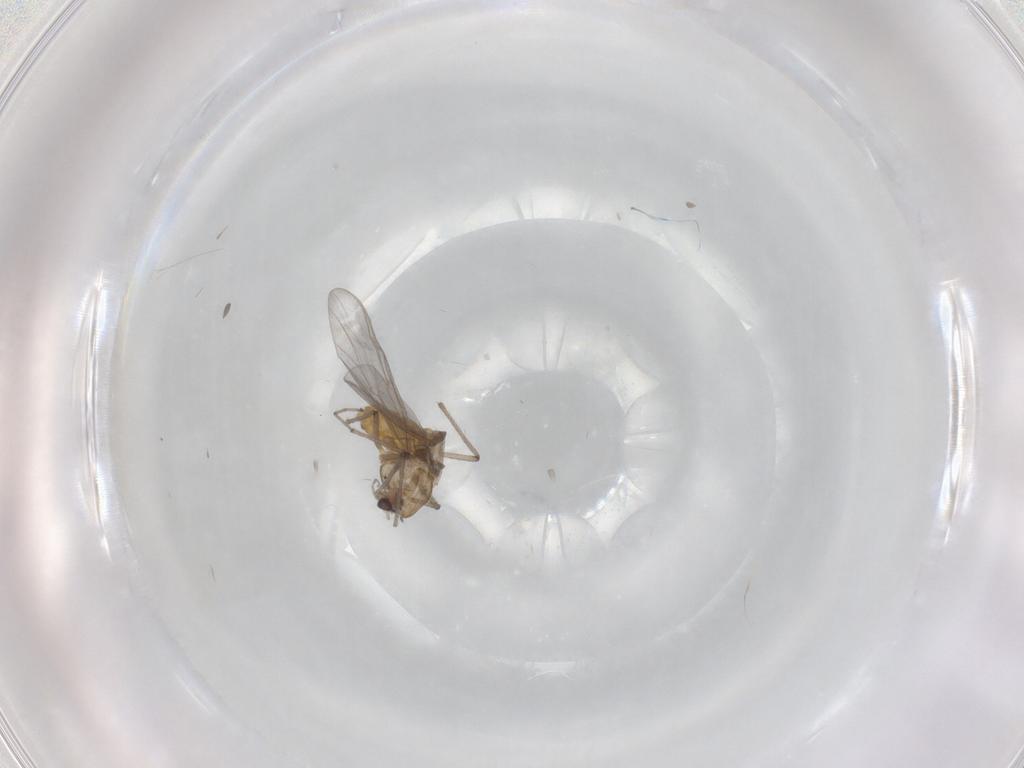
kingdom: Animalia
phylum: Arthropoda
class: Insecta
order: Diptera
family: Chironomidae
